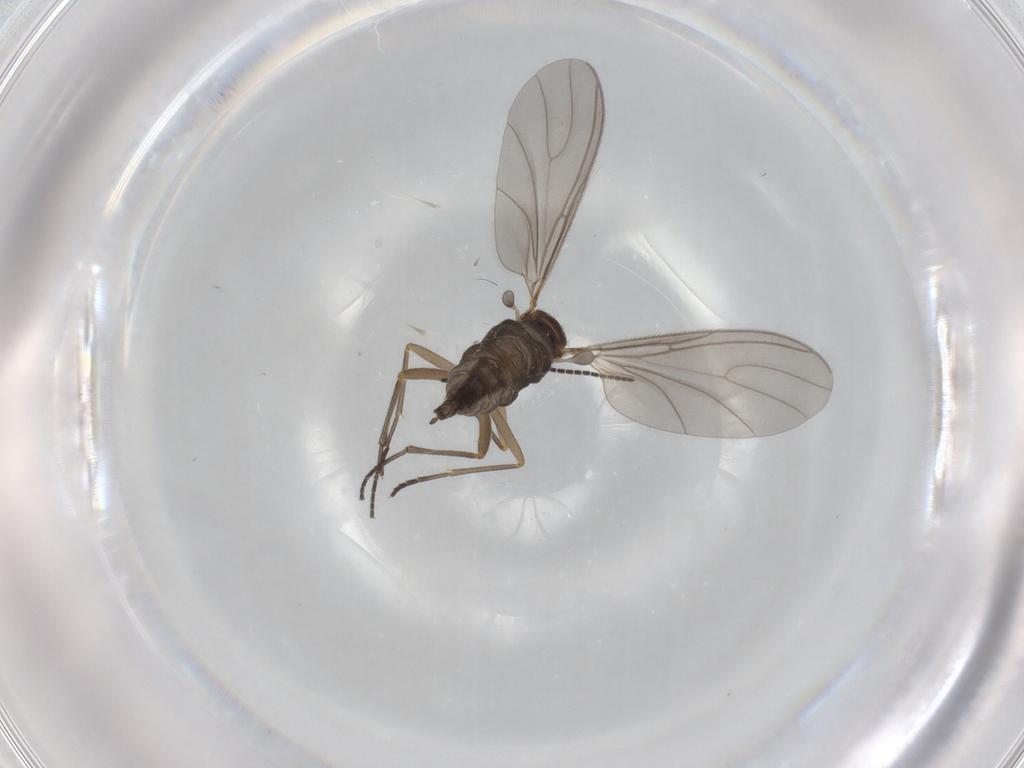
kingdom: Animalia
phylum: Arthropoda
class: Insecta
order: Diptera
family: Sciaridae
